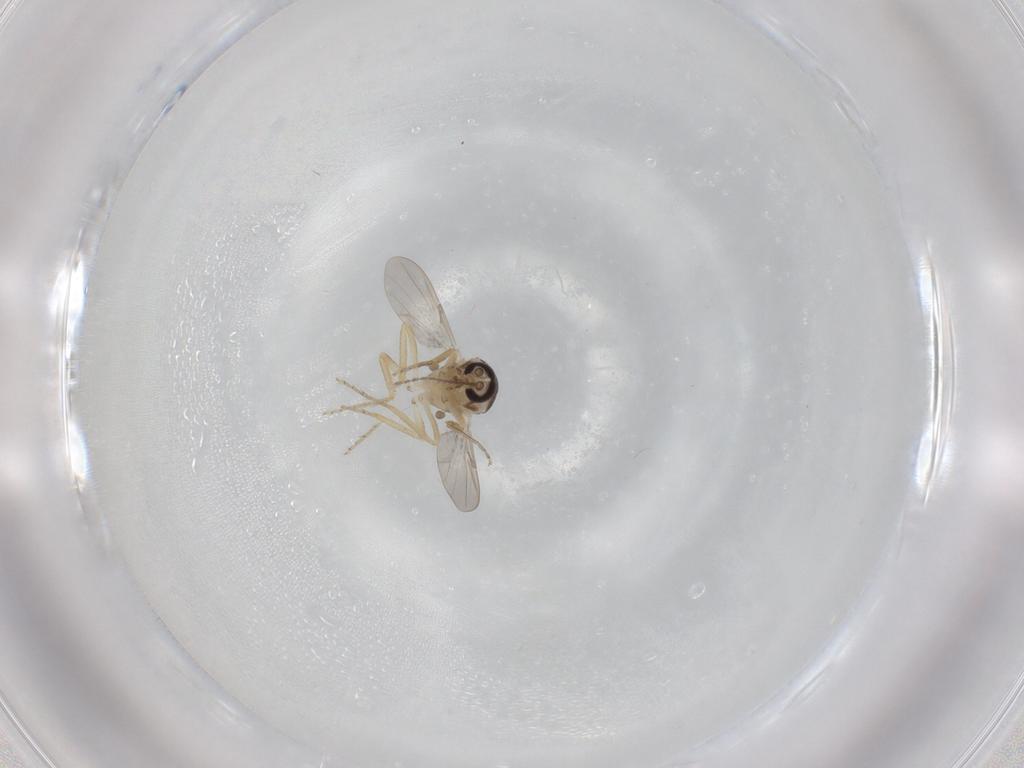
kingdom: Animalia
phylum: Arthropoda
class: Insecta
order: Diptera
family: Ceratopogonidae
